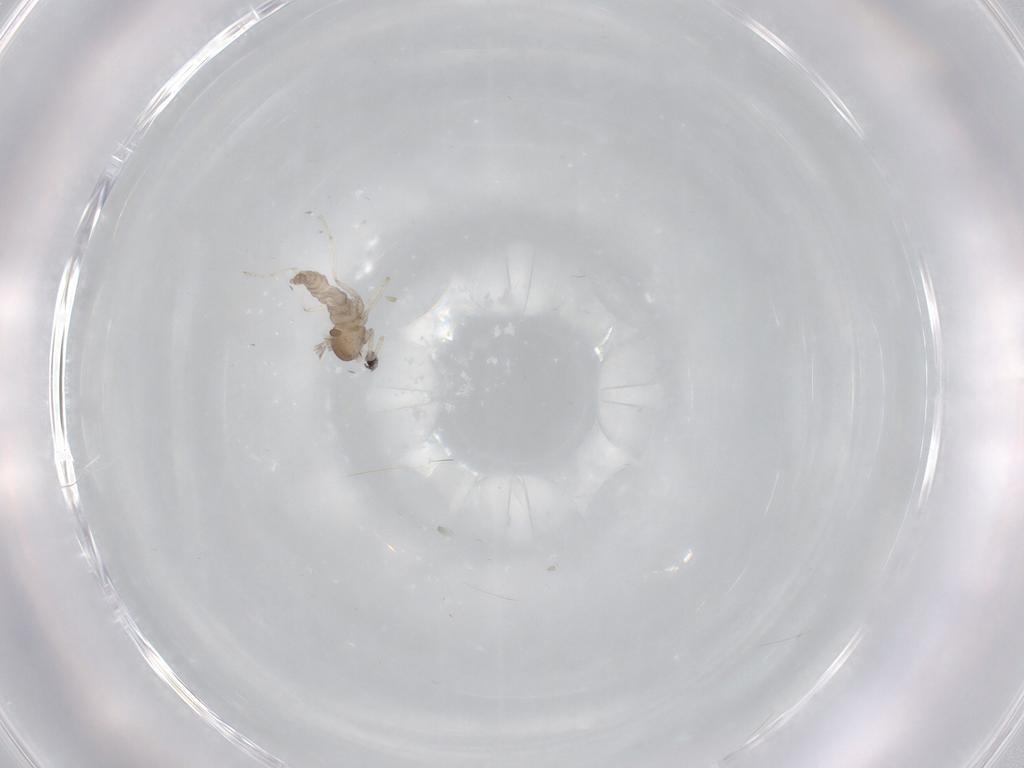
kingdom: Animalia
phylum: Arthropoda
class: Insecta
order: Diptera
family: Cecidomyiidae
